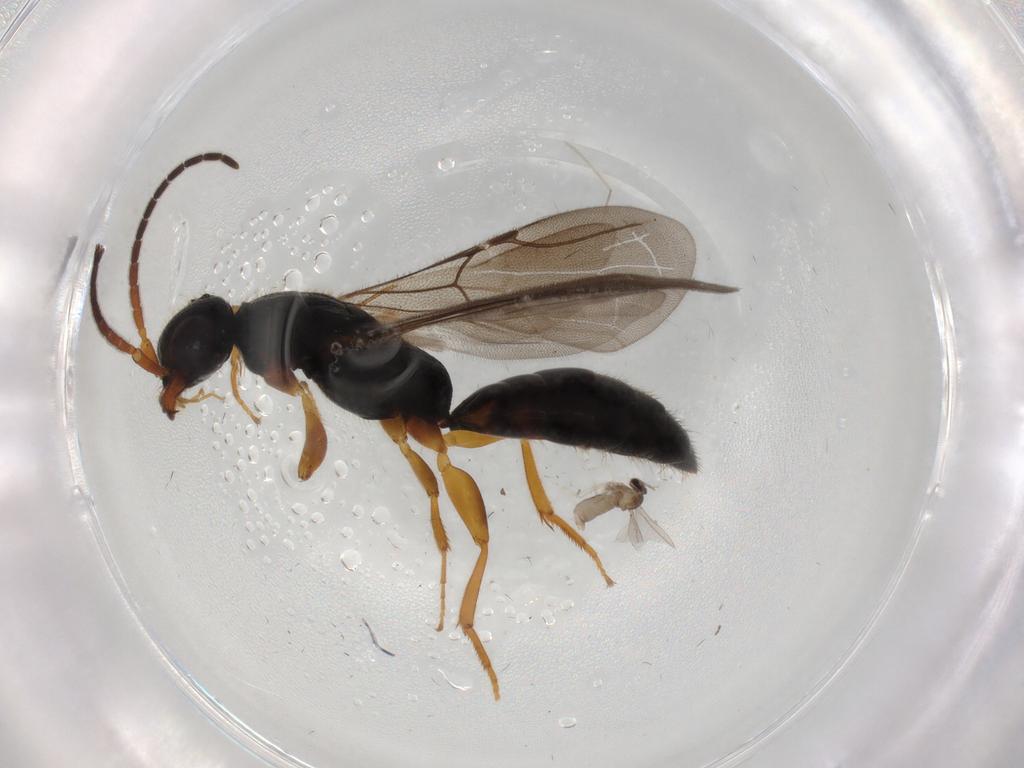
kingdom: Animalia
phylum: Arthropoda
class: Insecta
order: Diptera
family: Cecidomyiidae
